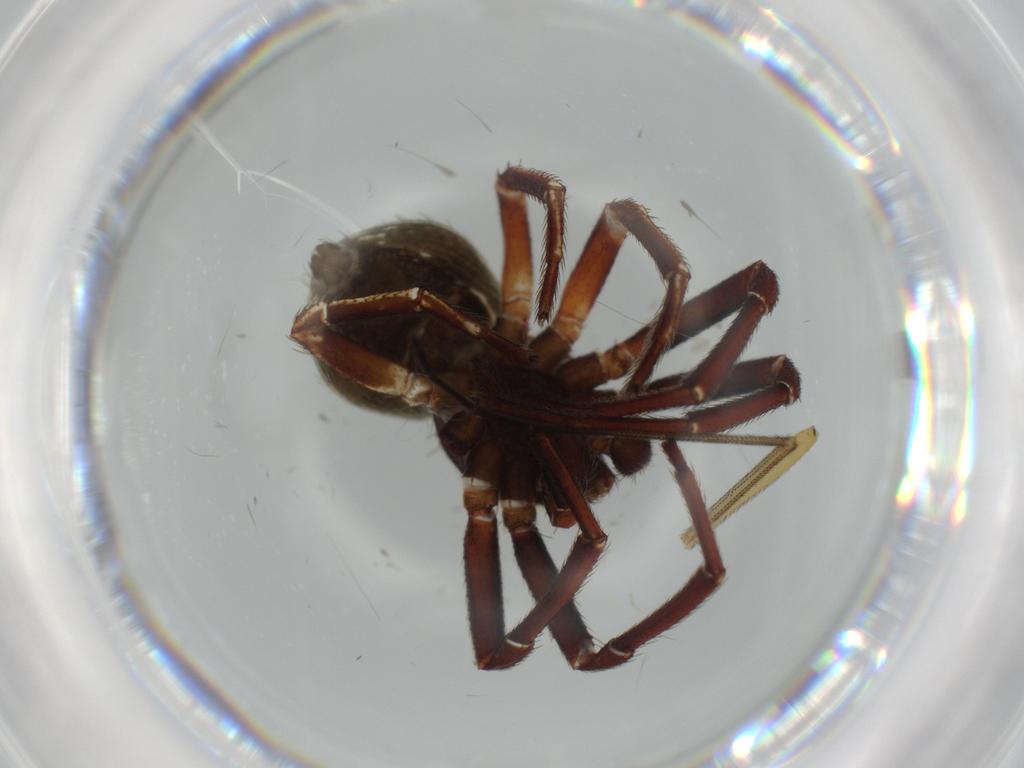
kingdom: Animalia
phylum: Arthropoda
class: Arachnida
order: Araneae
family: Thomisidae
